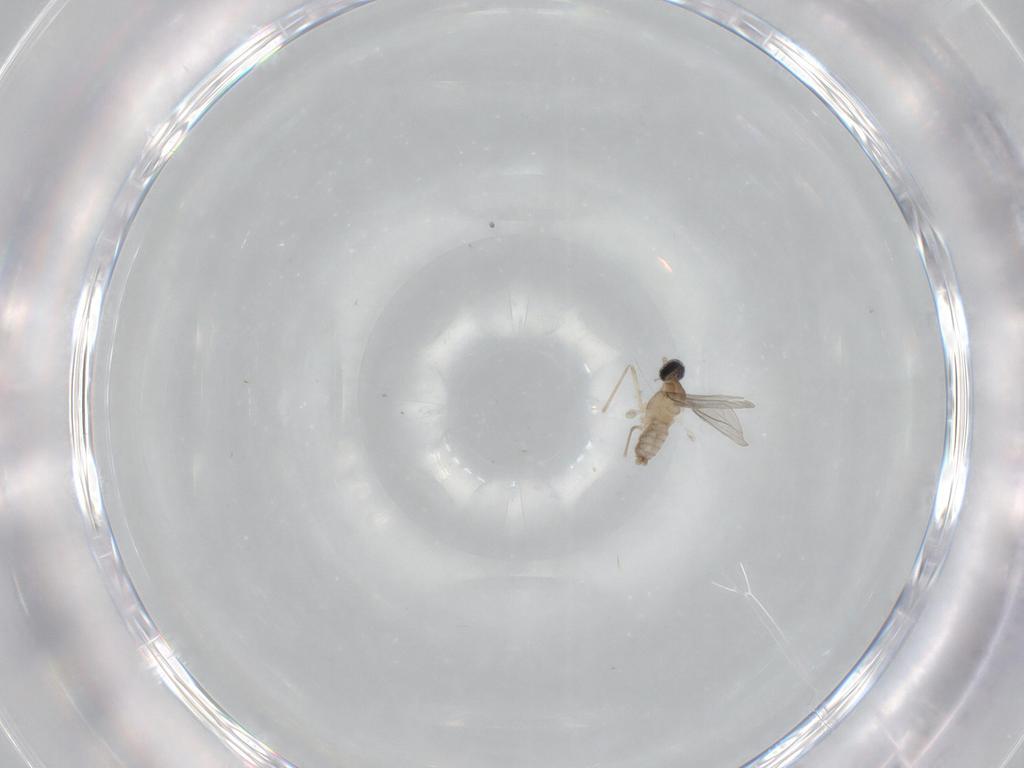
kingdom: Animalia
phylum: Arthropoda
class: Insecta
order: Diptera
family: Cecidomyiidae
